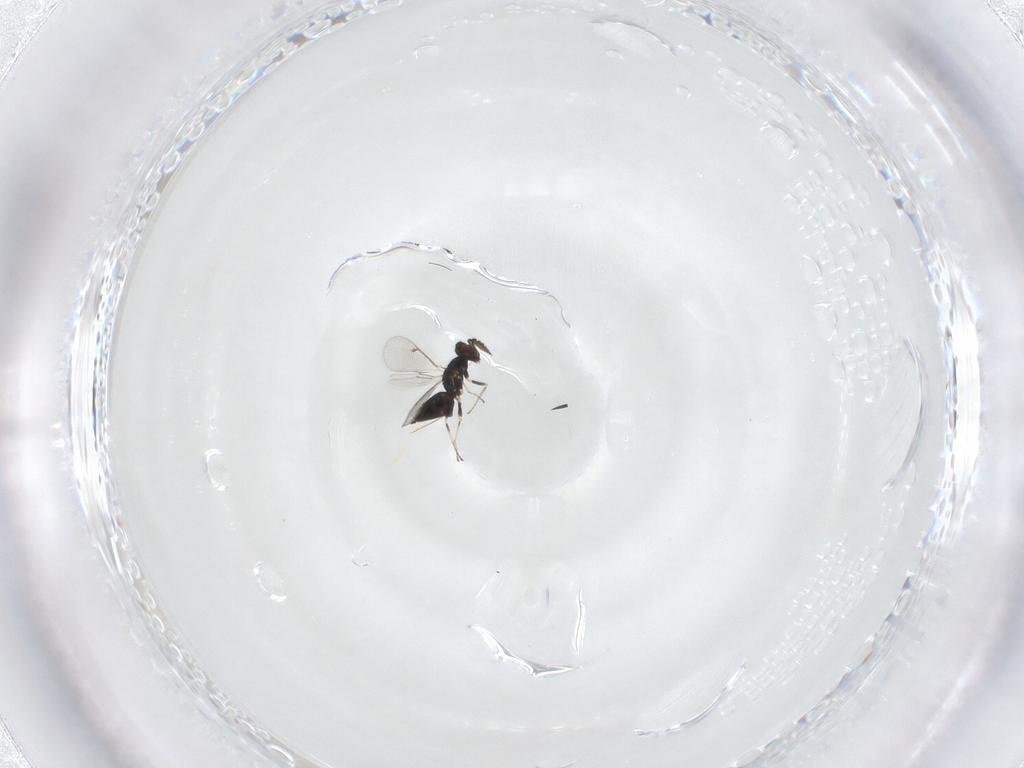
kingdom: Animalia
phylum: Arthropoda
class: Insecta
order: Hymenoptera
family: Eulophidae
